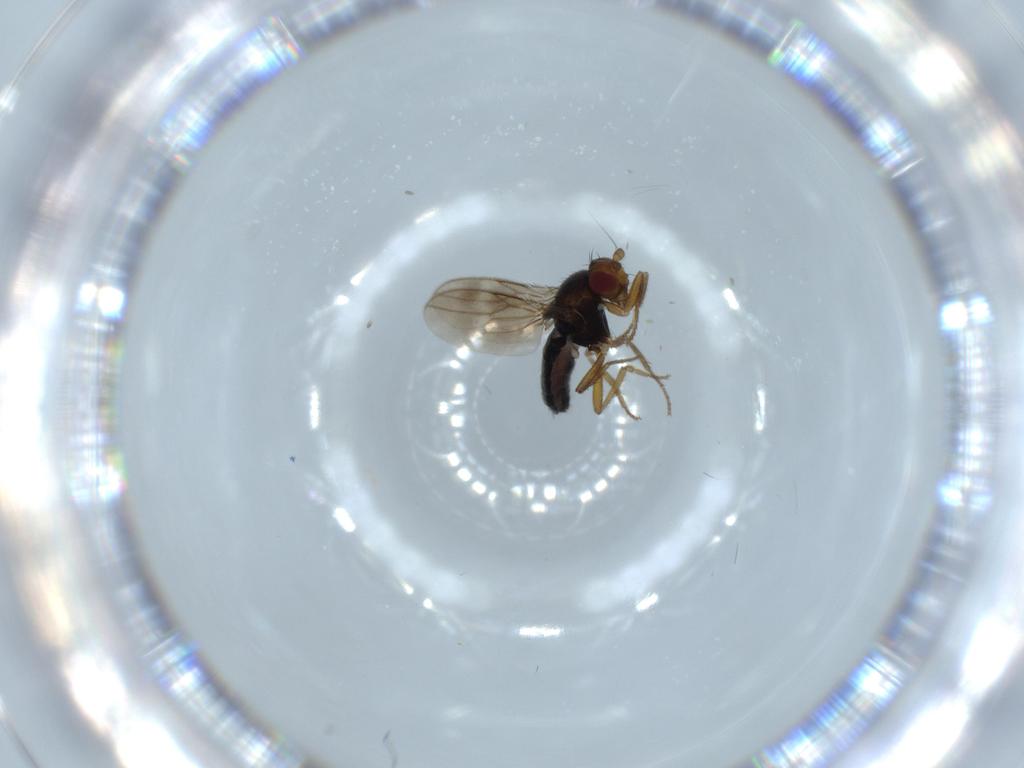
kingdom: Animalia
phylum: Arthropoda
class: Insecta
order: Diptera
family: Sphaeroceridae
